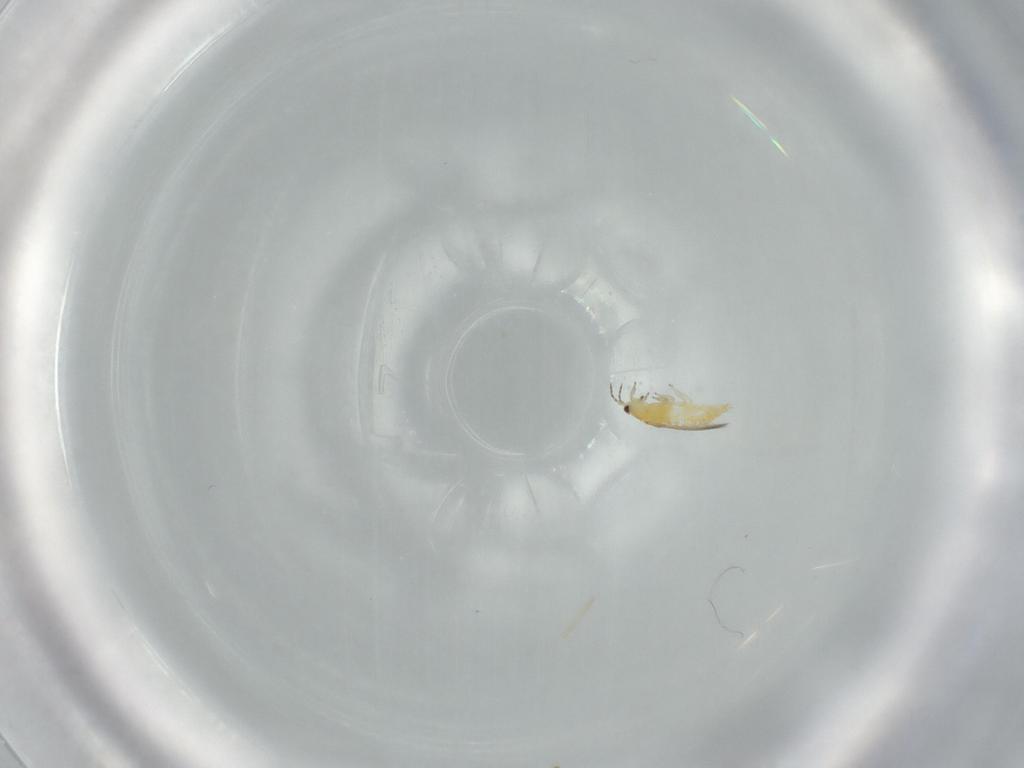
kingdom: Animalia
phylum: Arthropoda
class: Insecta
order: Thysanoptera
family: Thripidae
